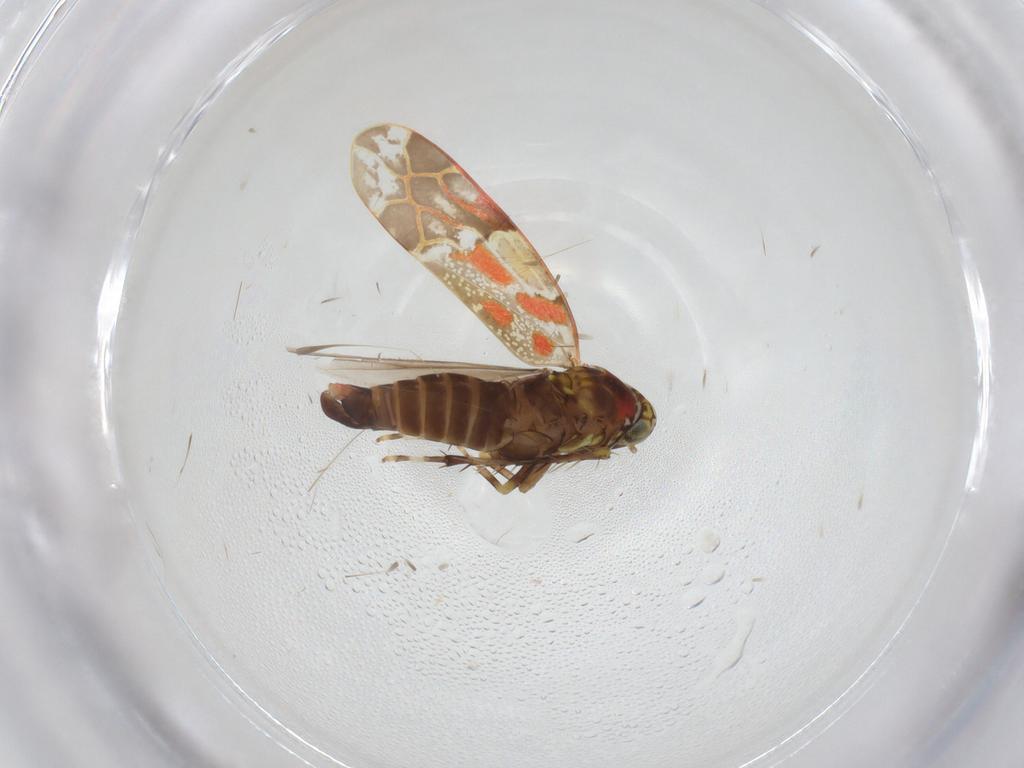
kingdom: Animalia
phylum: Arthropoda
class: Insecta
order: Hemiptera
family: Cicadellidae
